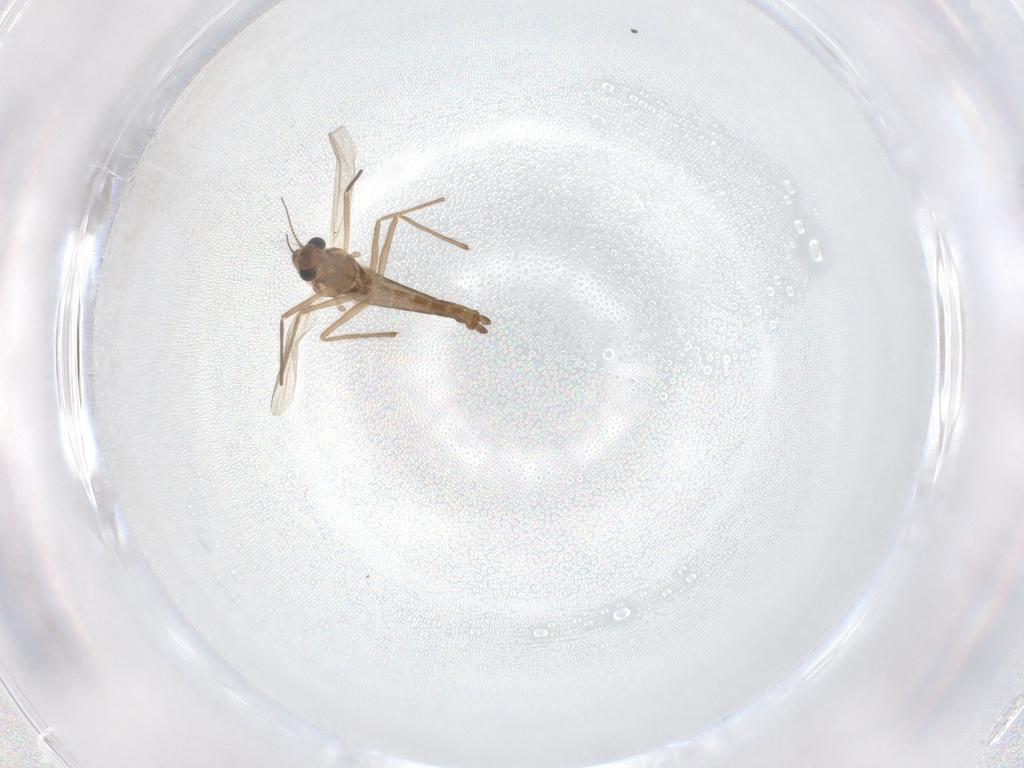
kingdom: Animalia
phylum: Arthropoda
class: Insecta
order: Diptera
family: Chironomidae
